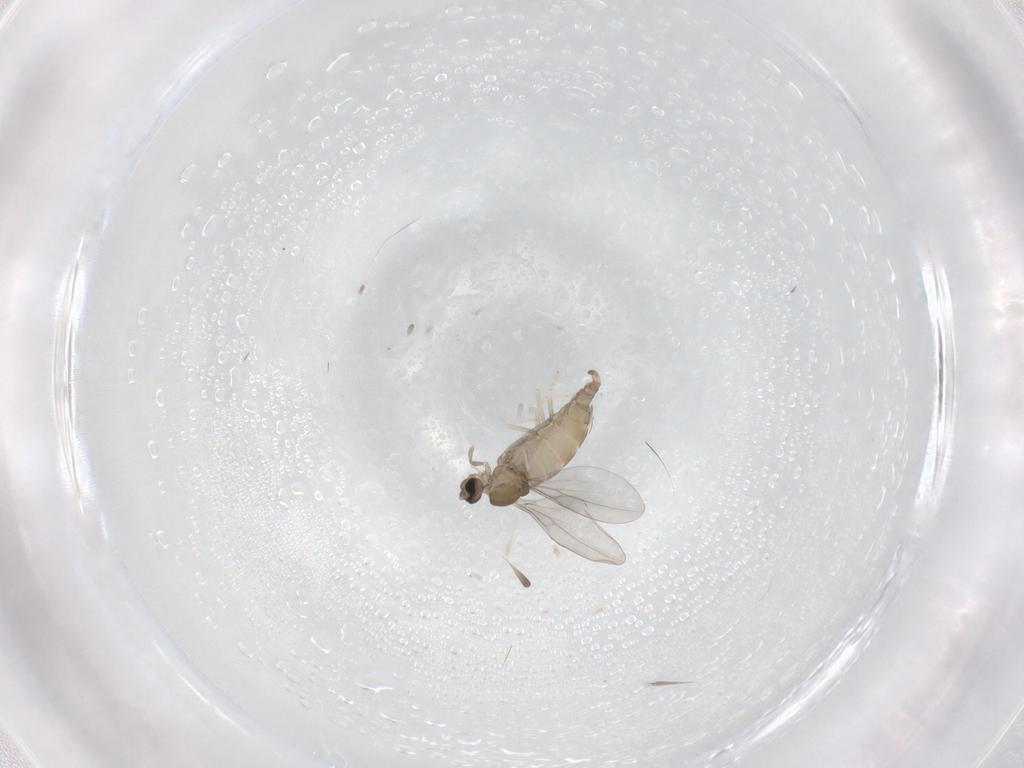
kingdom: Animalia
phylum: Arthropoda
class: Insecta
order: Diptera
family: Cecidomyiidae
